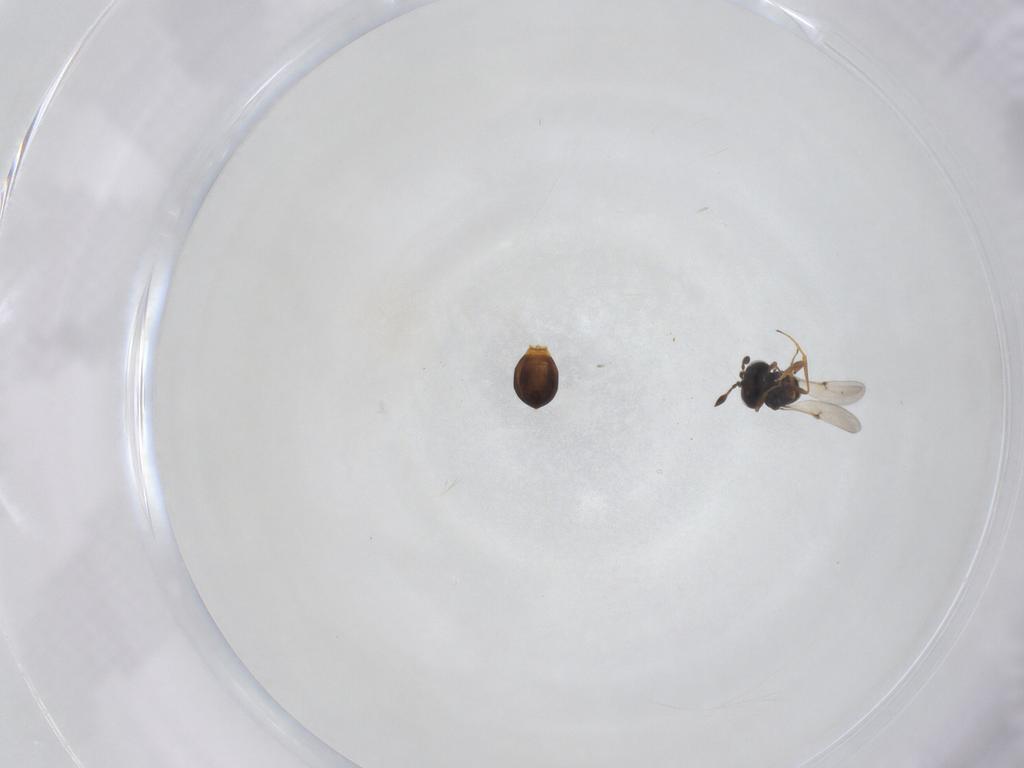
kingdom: Animalia
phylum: Arthropoda
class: Arachnida
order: Araneae
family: Pholcidae
